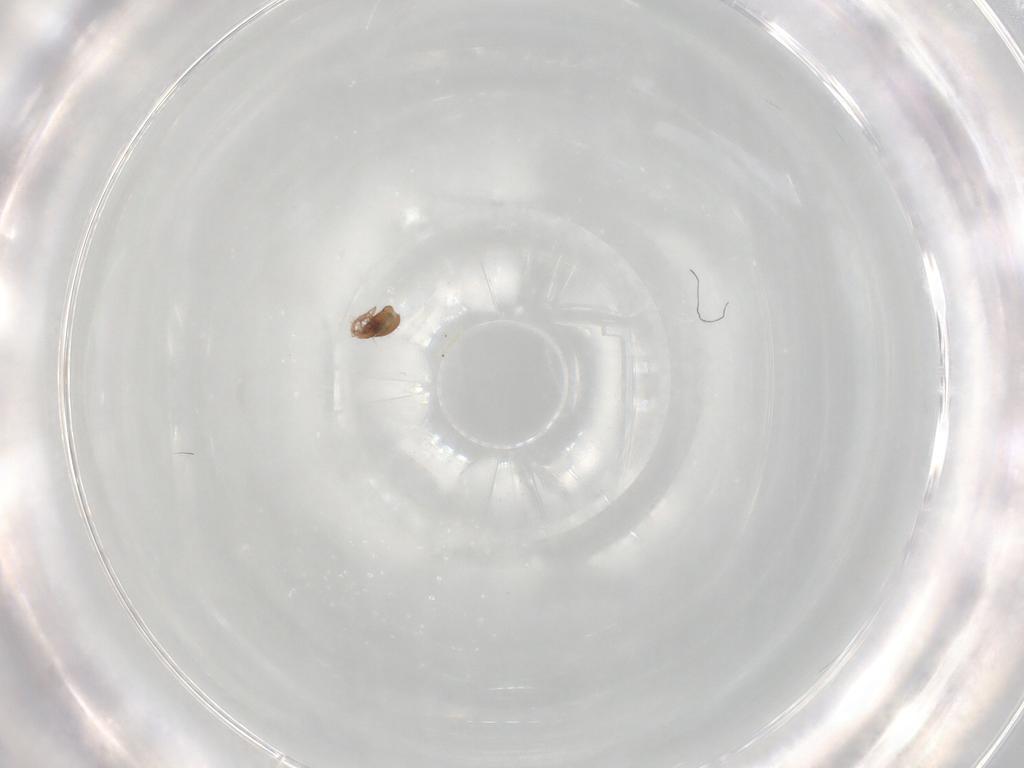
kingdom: Animalia
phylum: Arthropoda
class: Arachnida
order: Trombidiformes
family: Eupodidae
